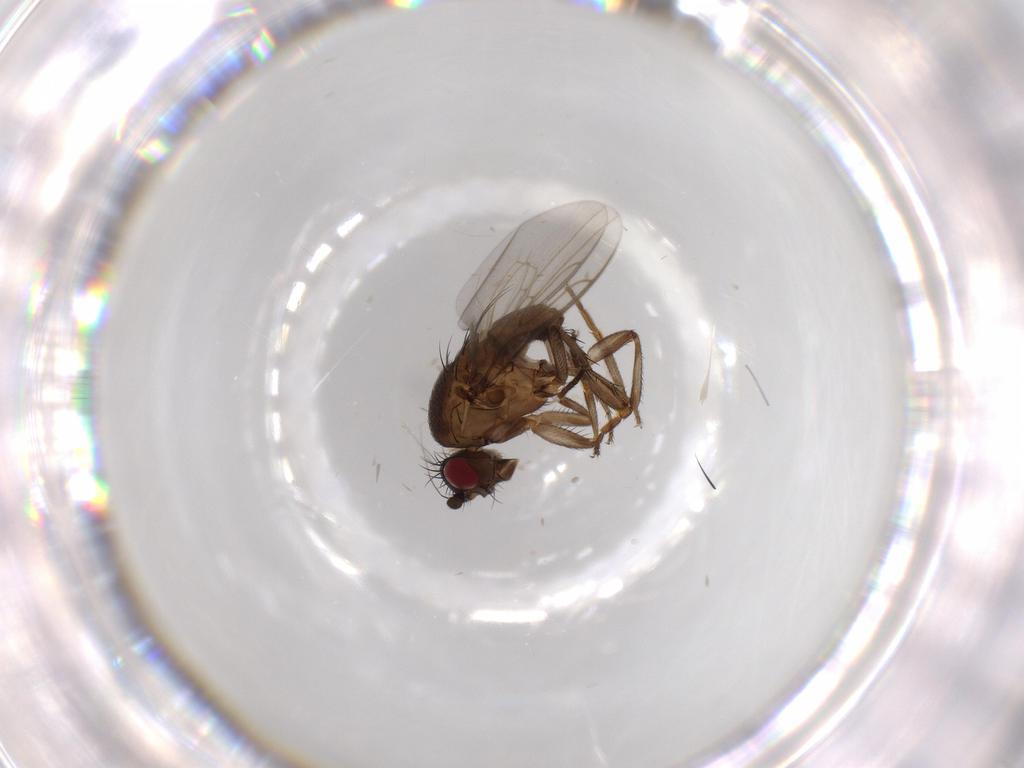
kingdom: Animalia
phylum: Arthropoda
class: Insecta
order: Diptera
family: Sphaeroceridae
